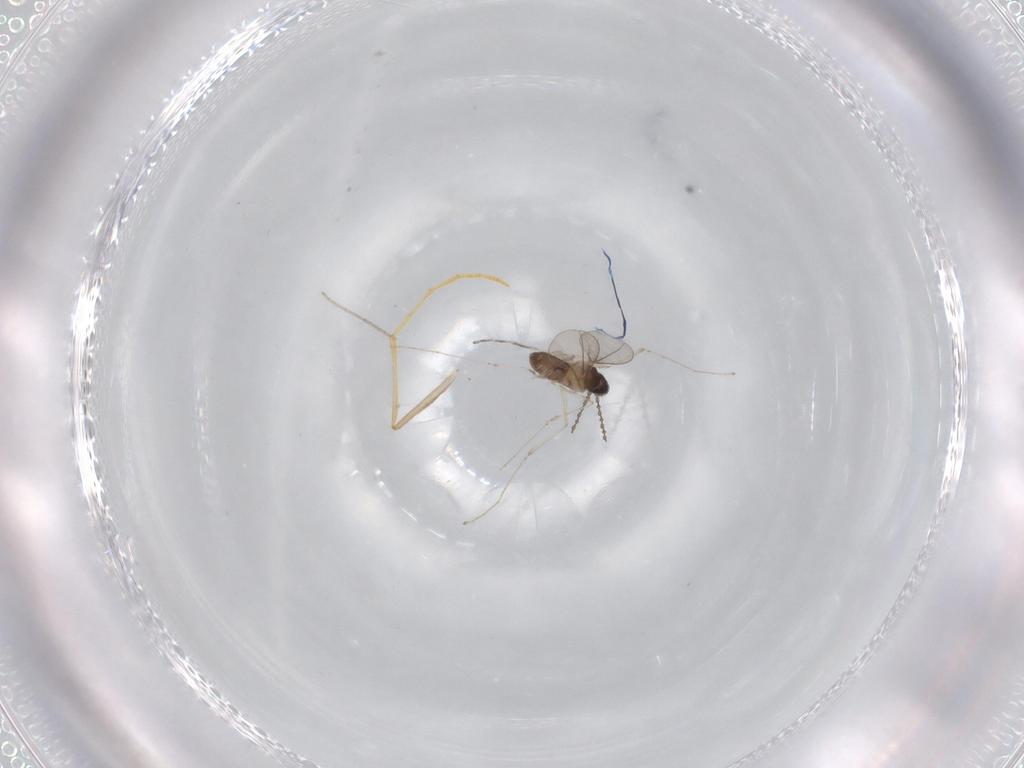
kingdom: Animalia
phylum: Arthropoda
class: Insecta
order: Diptera
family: Cecidomyiidae
